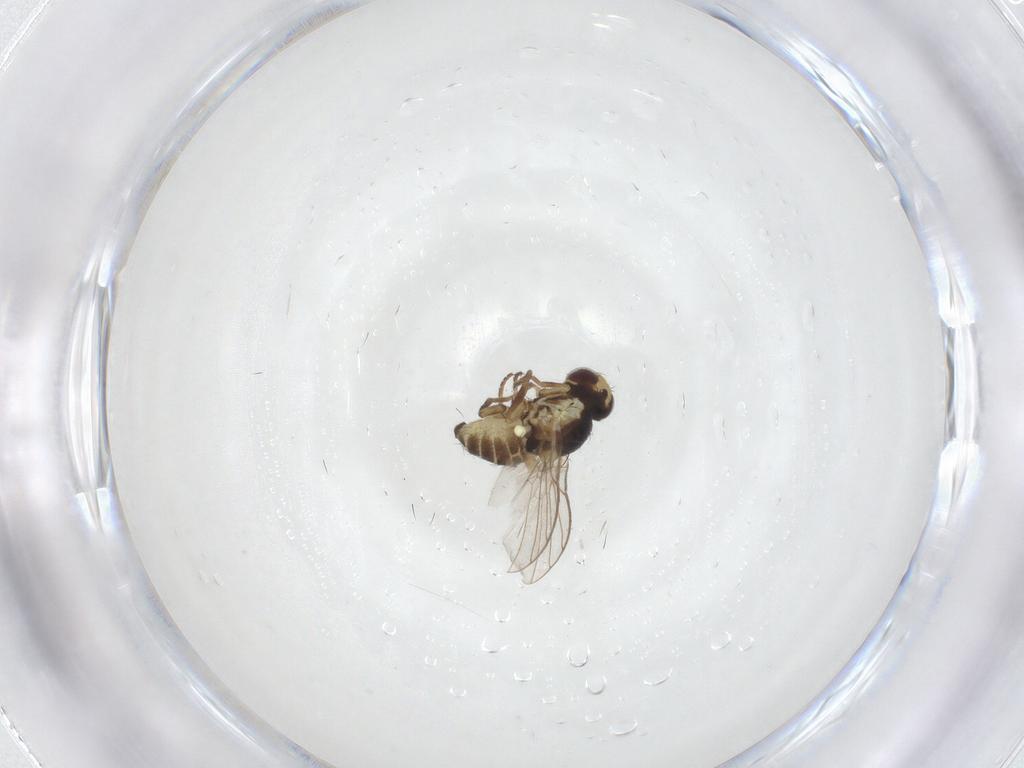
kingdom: Animalia
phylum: Arthropoda
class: Insecta
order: Diptera
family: Agromyzidae
